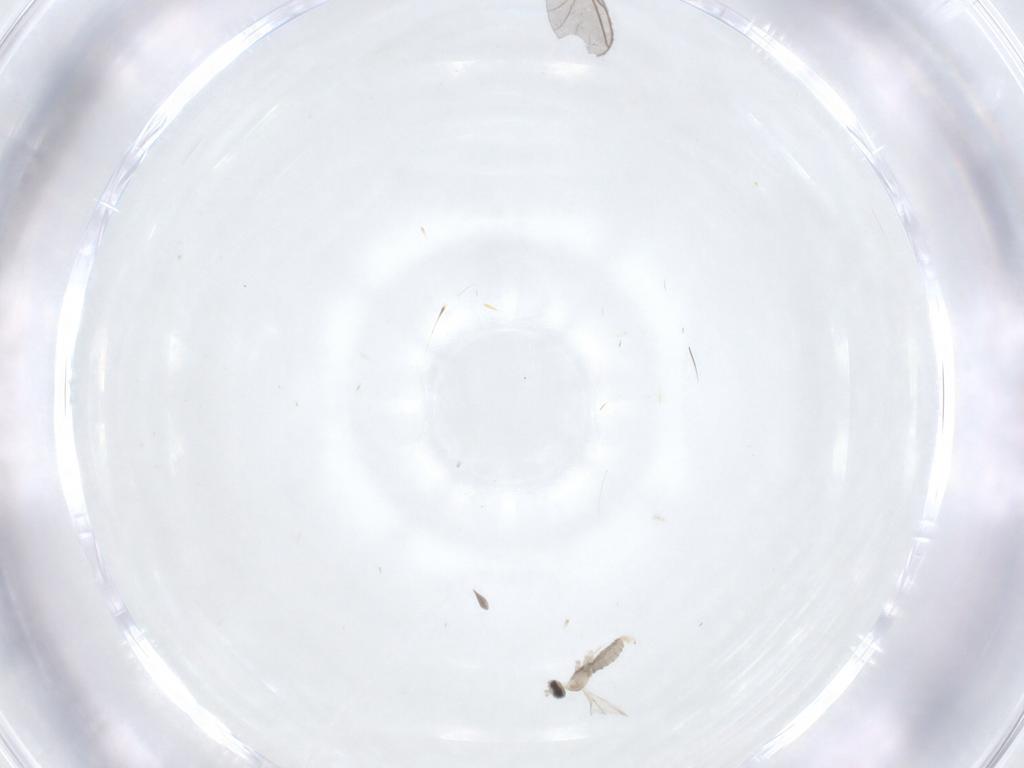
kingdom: Animalia
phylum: Arthropoda
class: Insecta
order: Diptera
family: Cecidomyiidae
